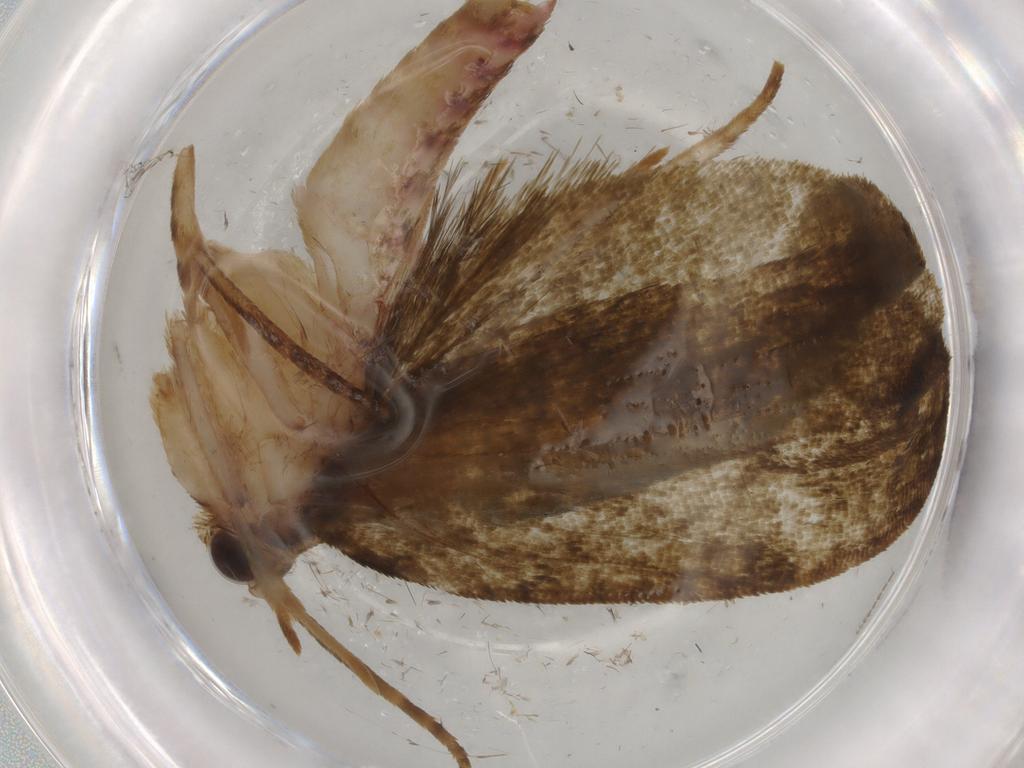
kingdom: Animalia
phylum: Arthropoda
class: Insecta
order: Lepidoptera
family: Geometridae
